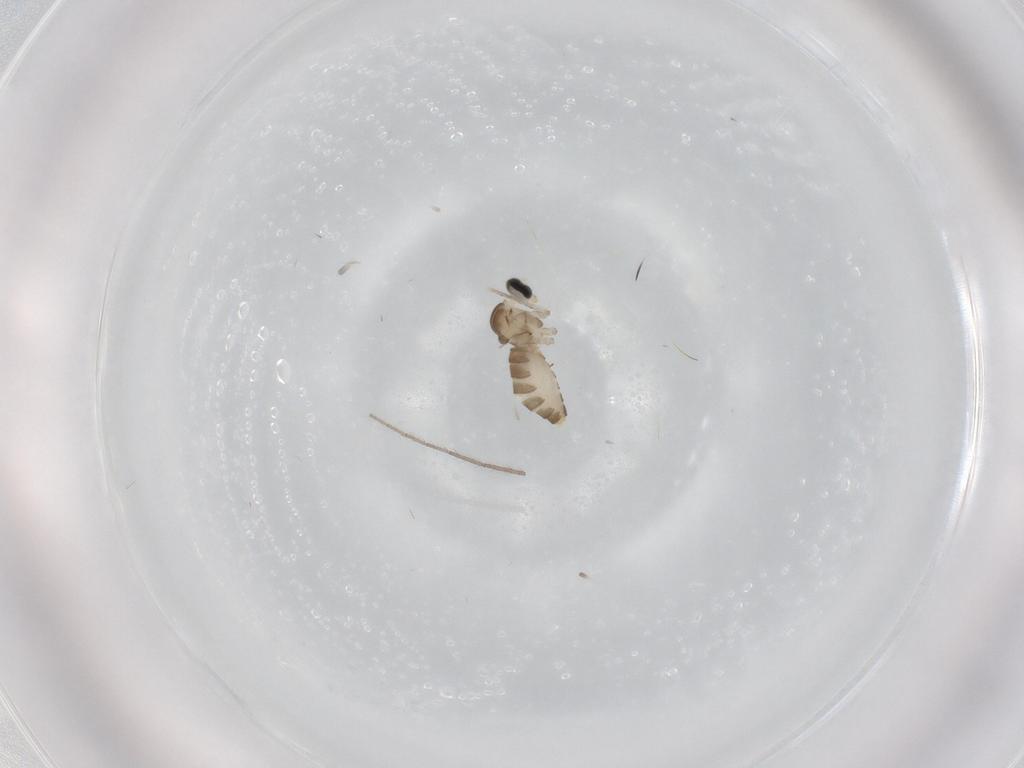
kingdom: Animalia
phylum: Arthropoda
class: Insecta
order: Diptera
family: Cecidomyiidae
